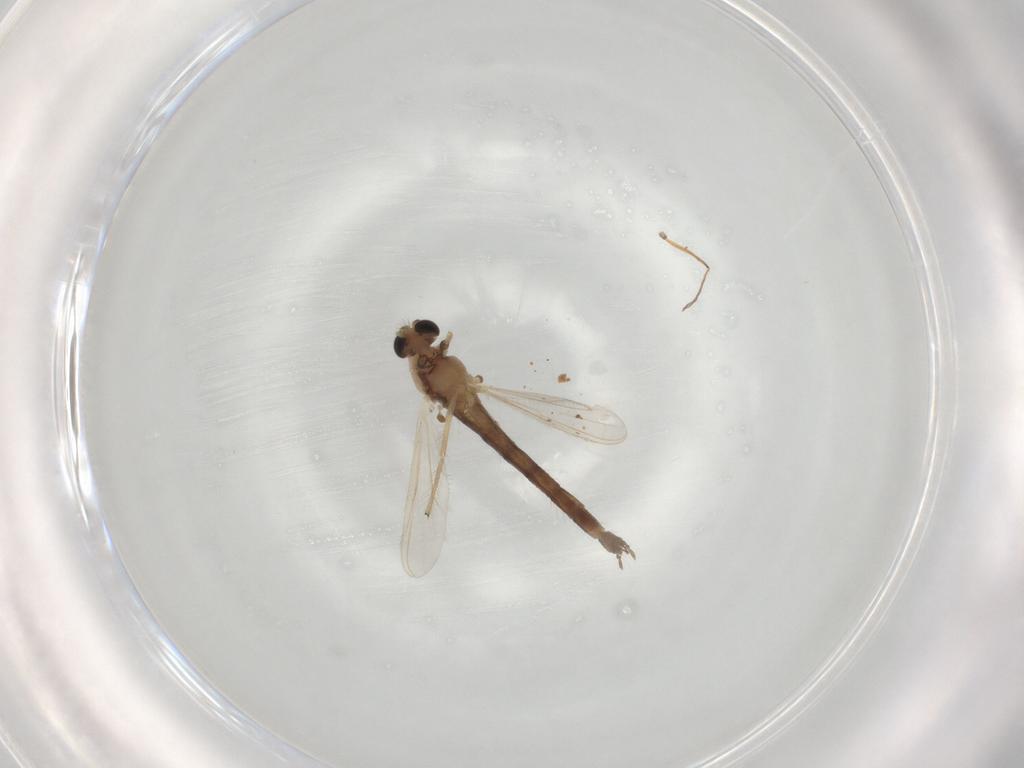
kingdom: Animalia
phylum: Arthropoda
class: Insecta
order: Diptera
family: Chironomidae
